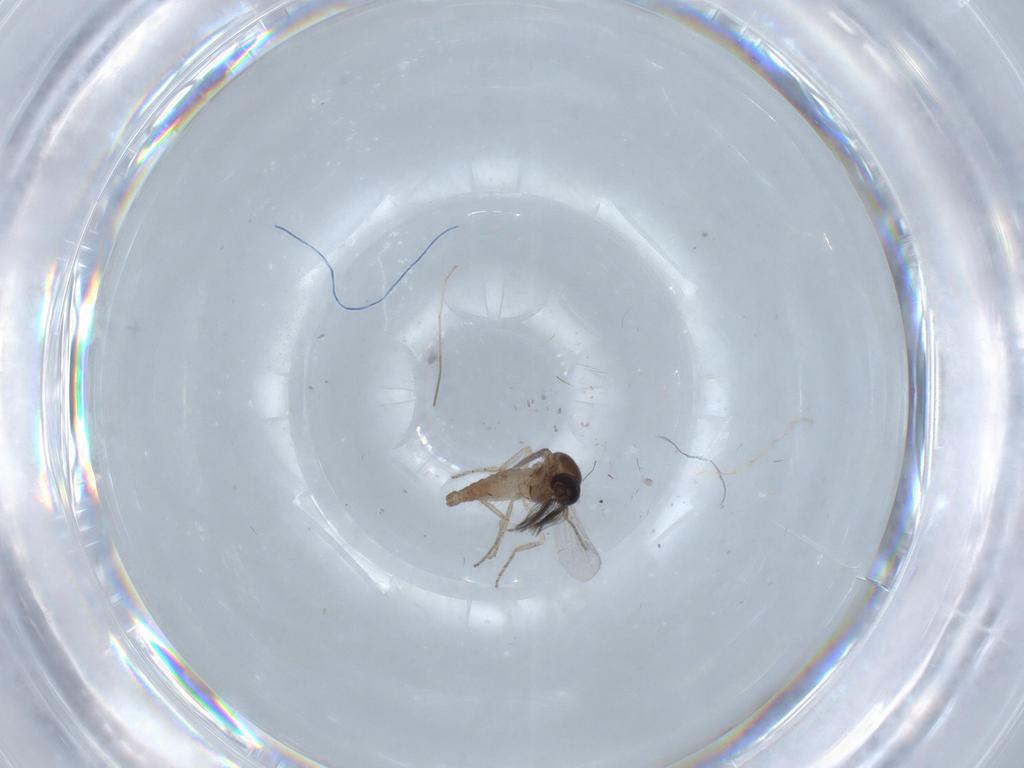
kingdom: Animalia
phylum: Arthropoda
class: Insecta
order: Diptera
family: Chironomidae
